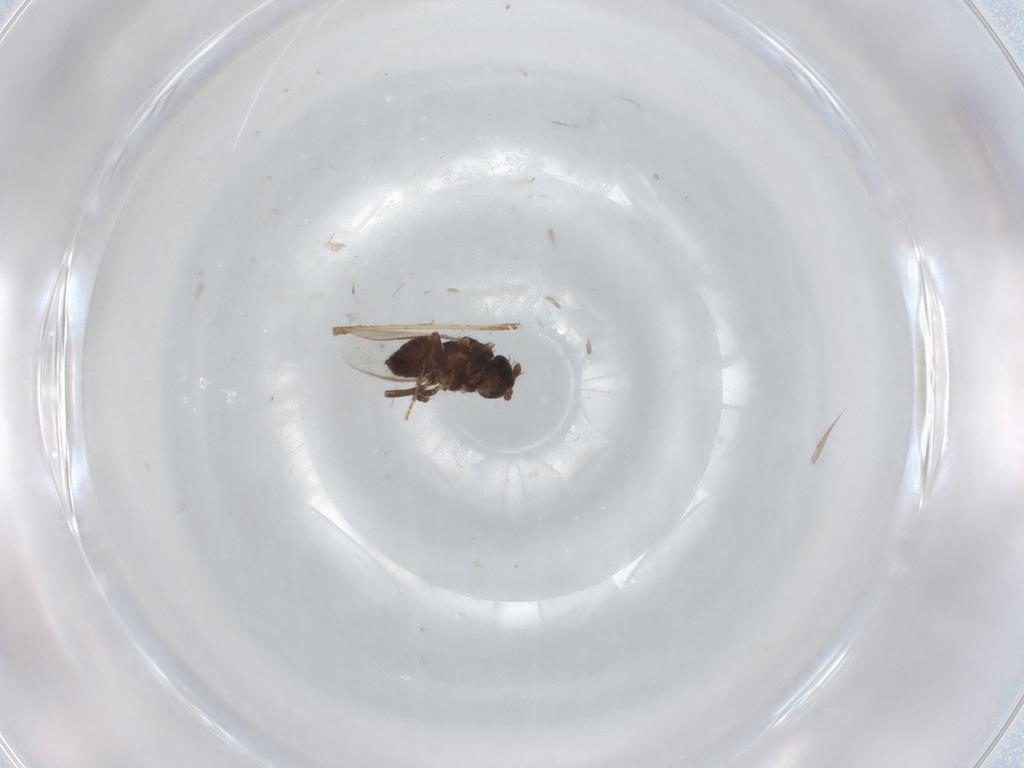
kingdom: Animalia
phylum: Arthropoda
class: Insecta
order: Diptera
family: Sphaeroceridae
